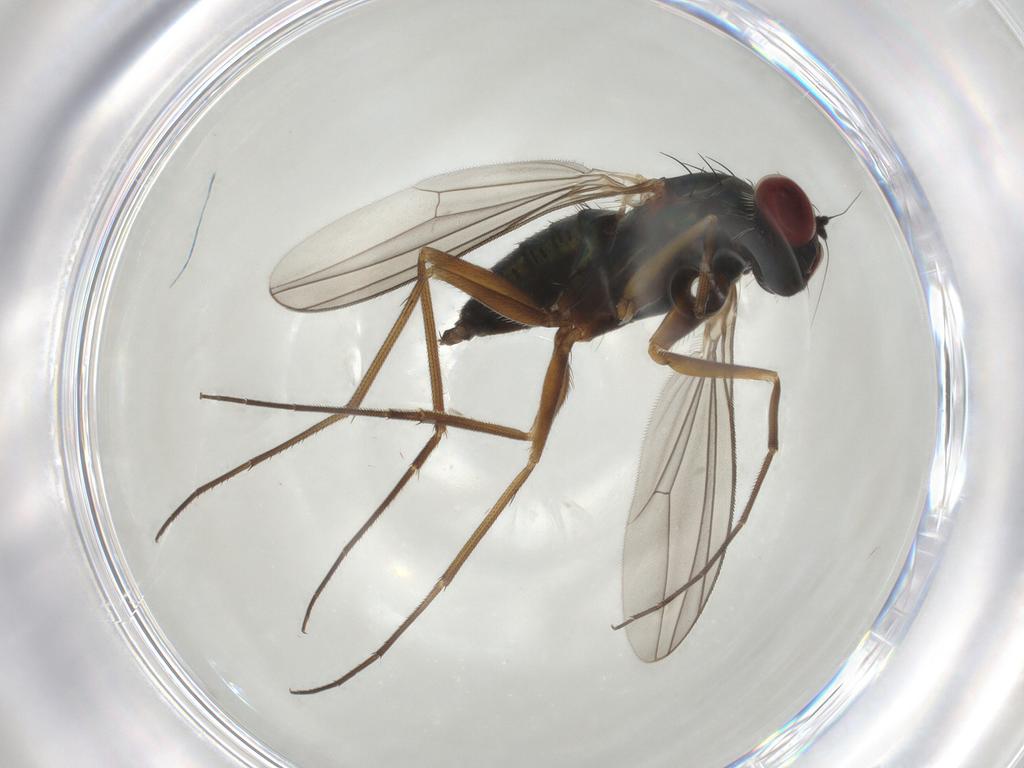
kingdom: Animalia
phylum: Arthropoda
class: Insecta
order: Diptera
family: Dolichopodidae
